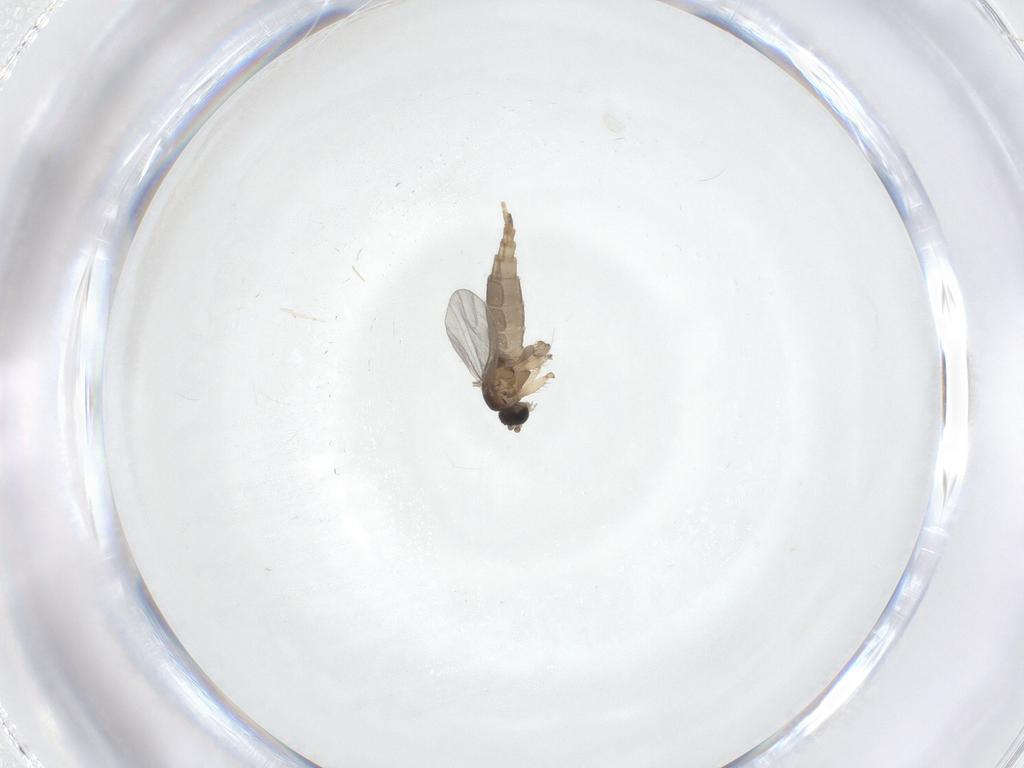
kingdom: Animalia
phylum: Arthropoda
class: Insecta
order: Diptera
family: Sciaridae
